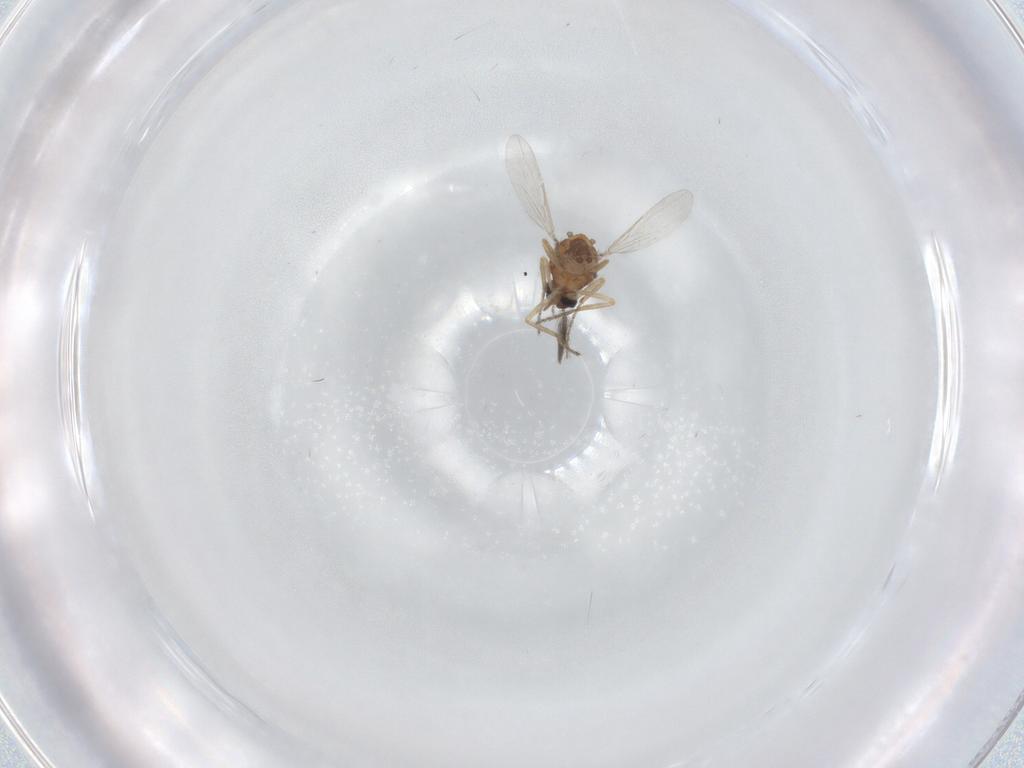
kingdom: Animalia
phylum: Arthropoda
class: Insecta
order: Diptera
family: Ceratopogonidae
